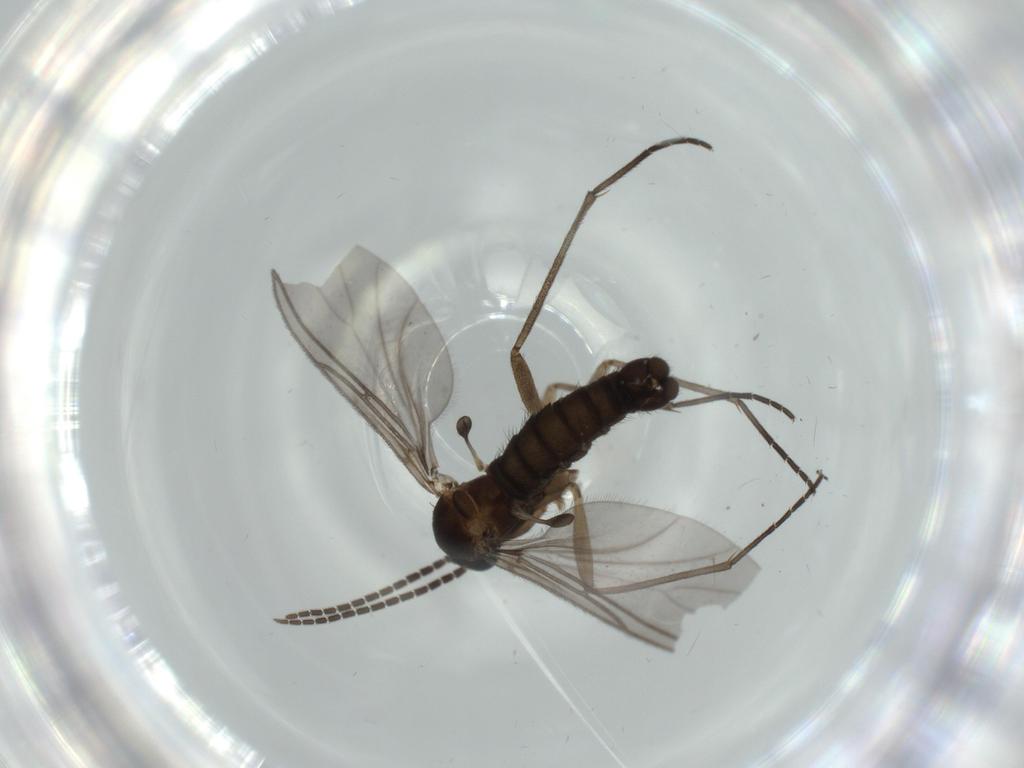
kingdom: Animalia
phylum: Arthropoda
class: Insecta
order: Diptera
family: Sciaridae
